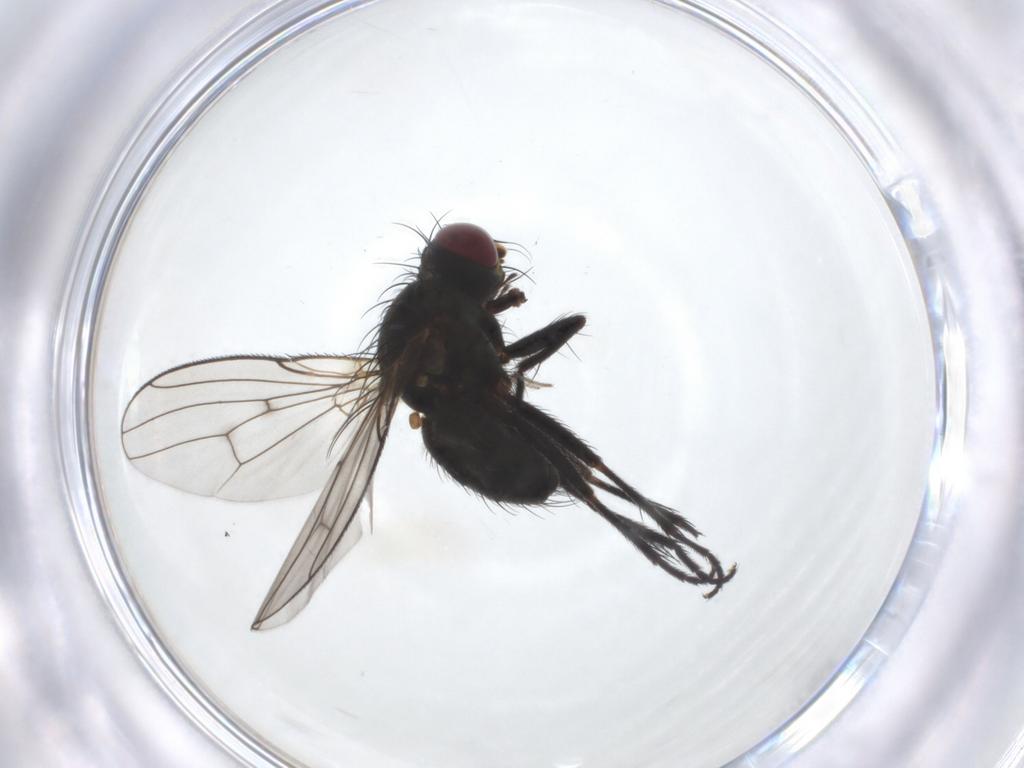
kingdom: Animalia
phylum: Arthropoda
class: Insecta
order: Diptera
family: Muscidae
